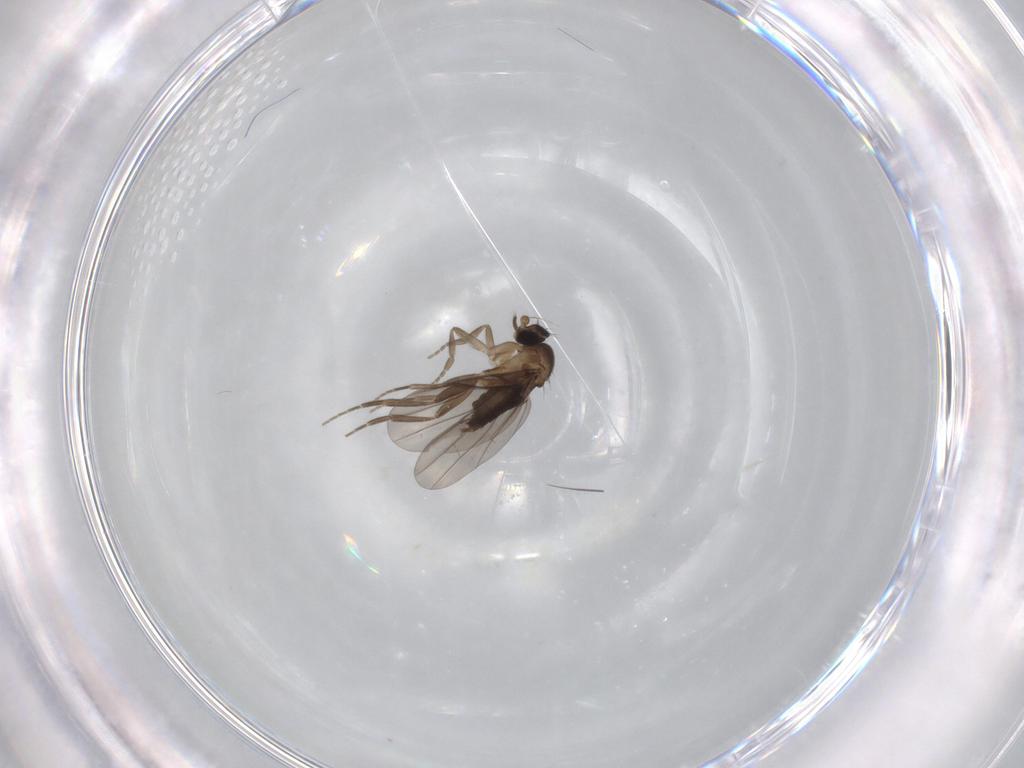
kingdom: Animalia
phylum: Arthropoda
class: Insecta
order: Diptera
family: Phoridae
